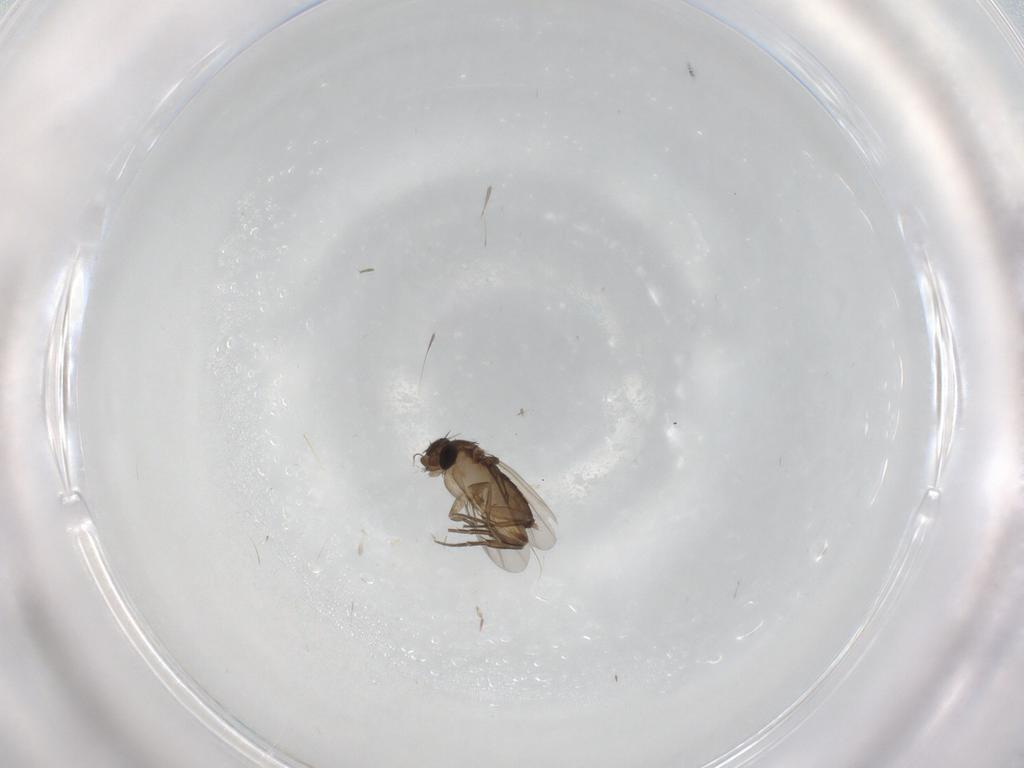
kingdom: Animalia
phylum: Arthropoda
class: Insecta
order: Diptera
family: Phoridae
